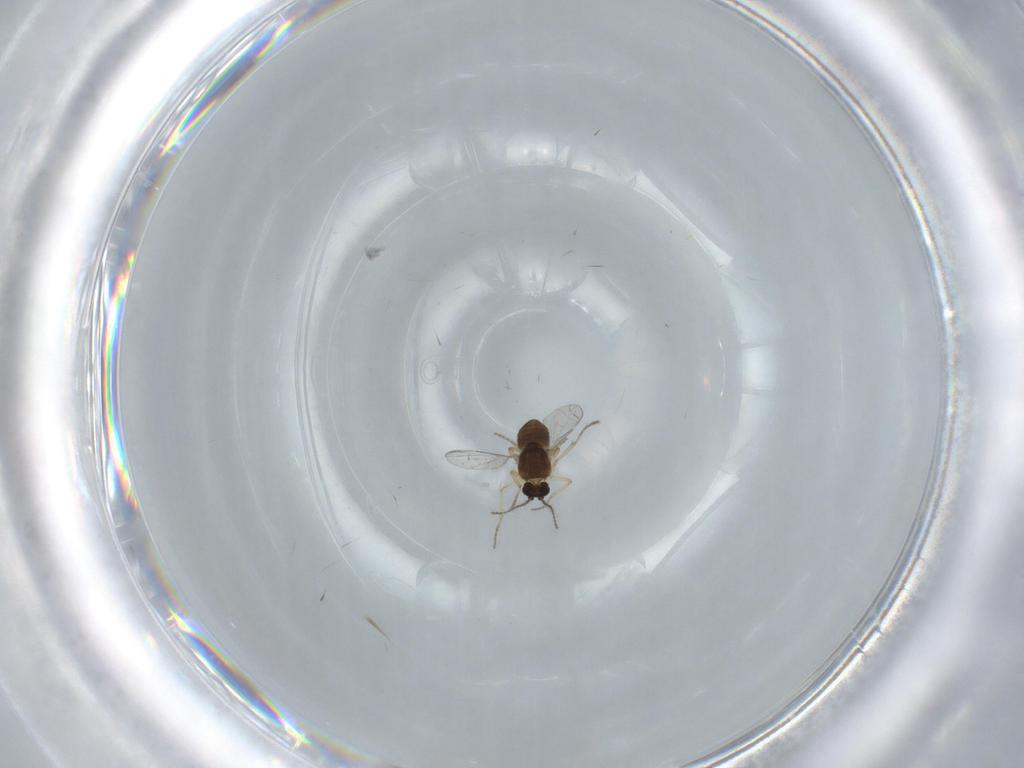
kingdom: Animalia
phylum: Arthropoda
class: Insecta
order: Diptera
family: Ceratopogonidae
